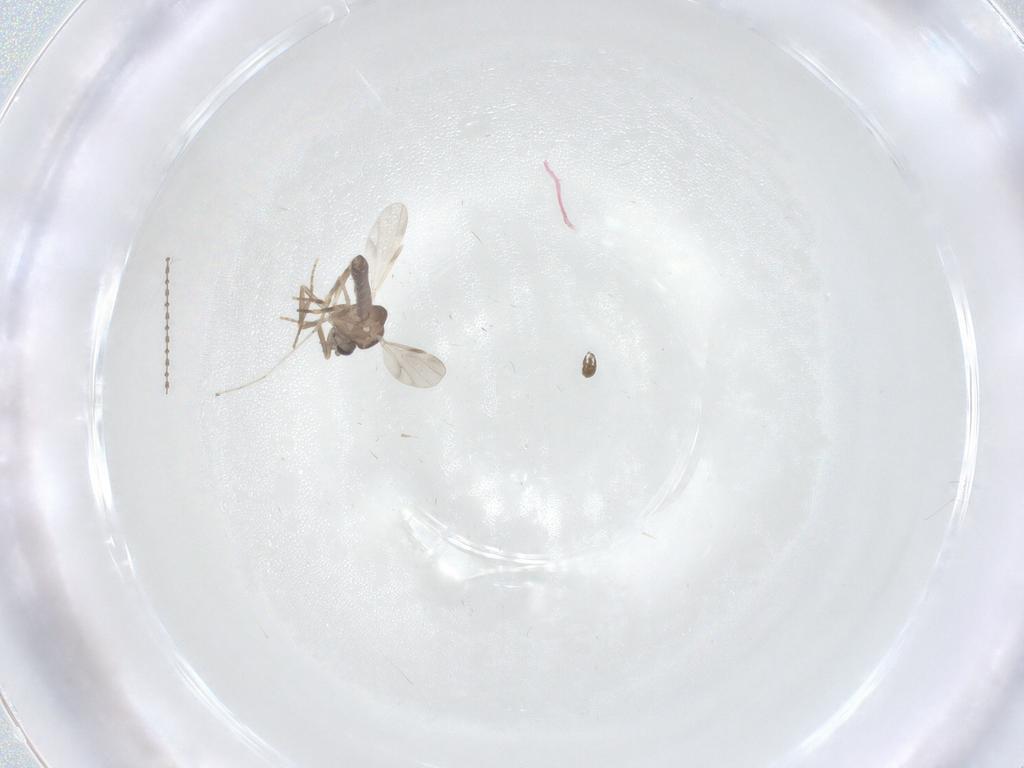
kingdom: Animalia
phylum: Arthropoda
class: Insecta
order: Diptera
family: Ceratopogonidae
